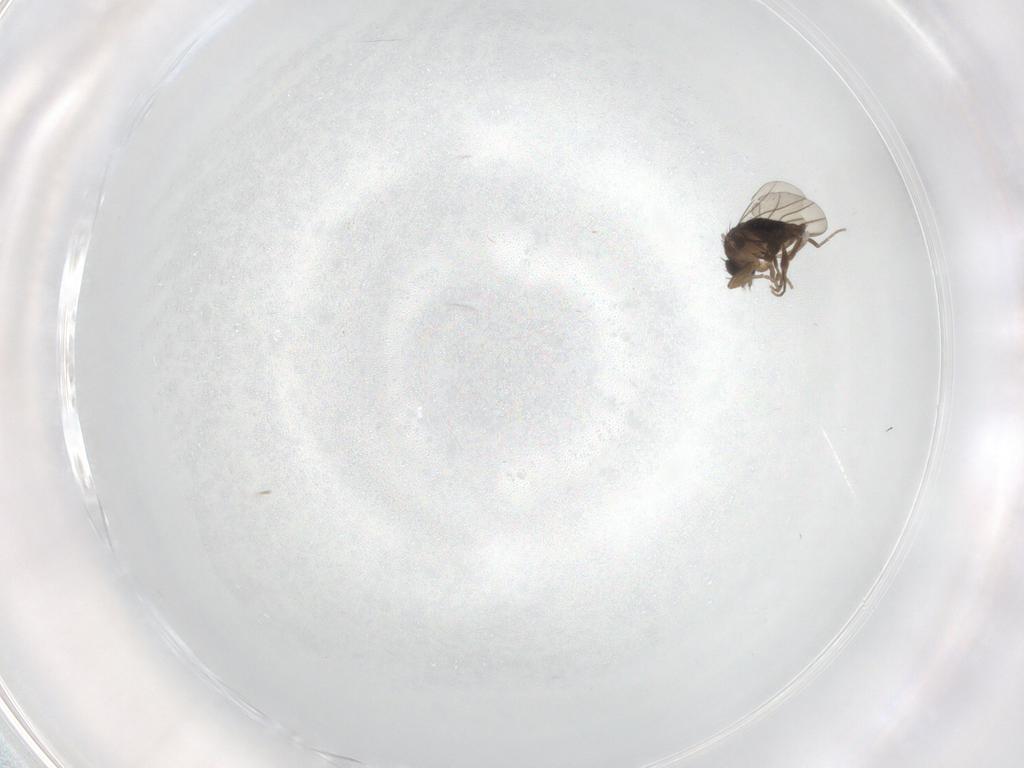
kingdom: Animalia
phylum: Arthropoda
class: Insecta
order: Diptera
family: Phoridae
